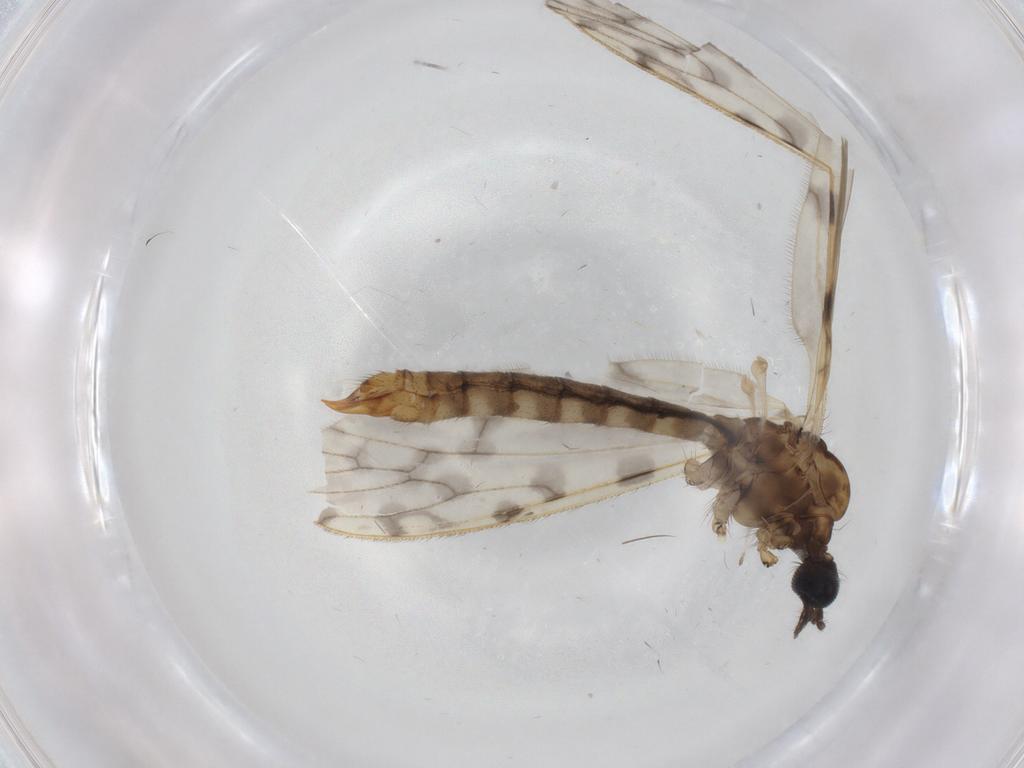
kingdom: Animalia
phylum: Arthropoda
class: Insecta
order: Diptera
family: Limoniidae
